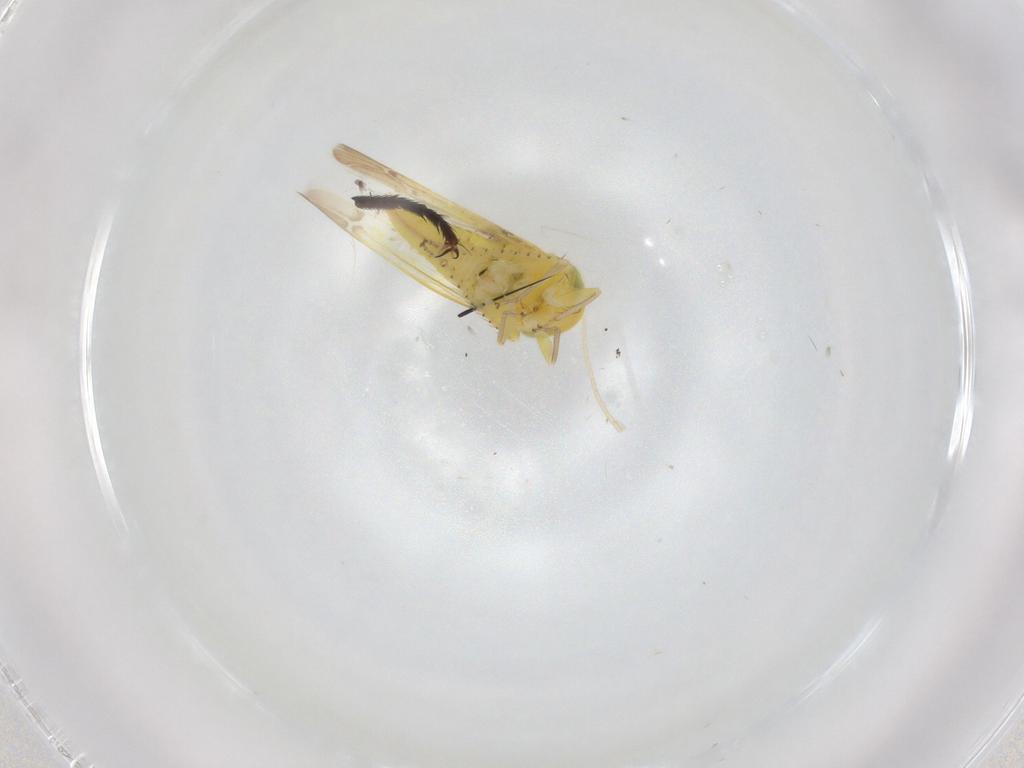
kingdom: Animalia
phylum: Arthropoda
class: Insecta
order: Hemiptera
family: Cicadellidae
